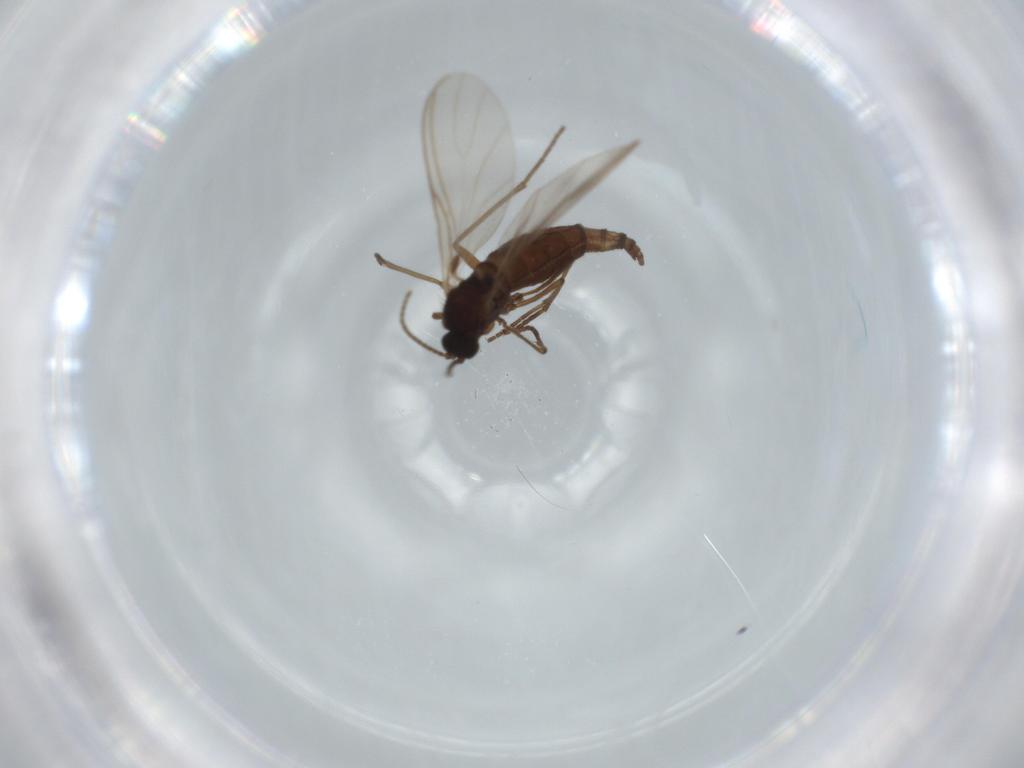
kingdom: Animalia
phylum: Arthropoda
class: Insecta
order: Diptera
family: Sciaridae
